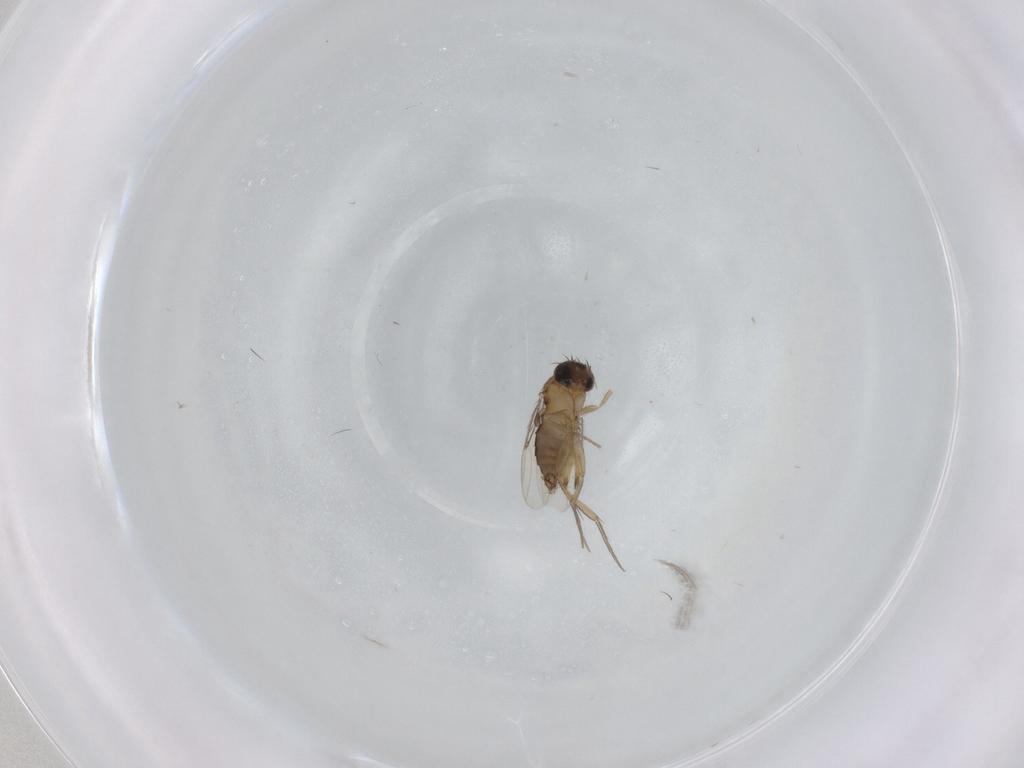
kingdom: Animalia
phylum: Arthropoda
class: Insecta
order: Diptera
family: Phoridae
